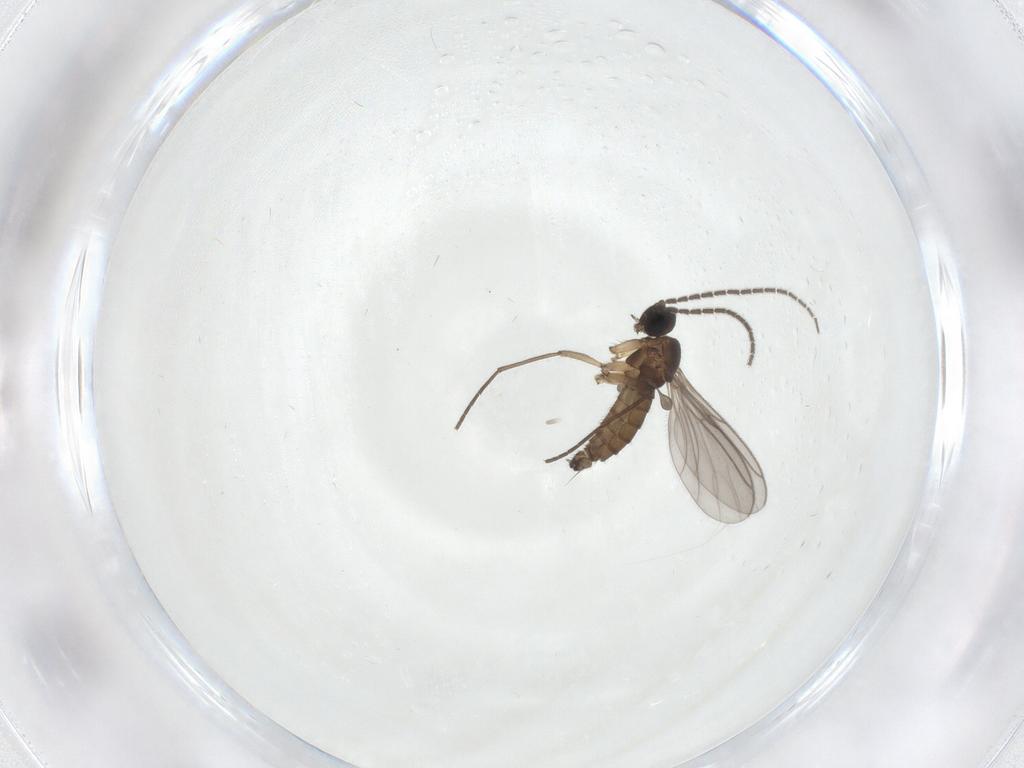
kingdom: Animalia
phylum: Arthropoda
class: Insecta
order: Diptera
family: Sciaridae
